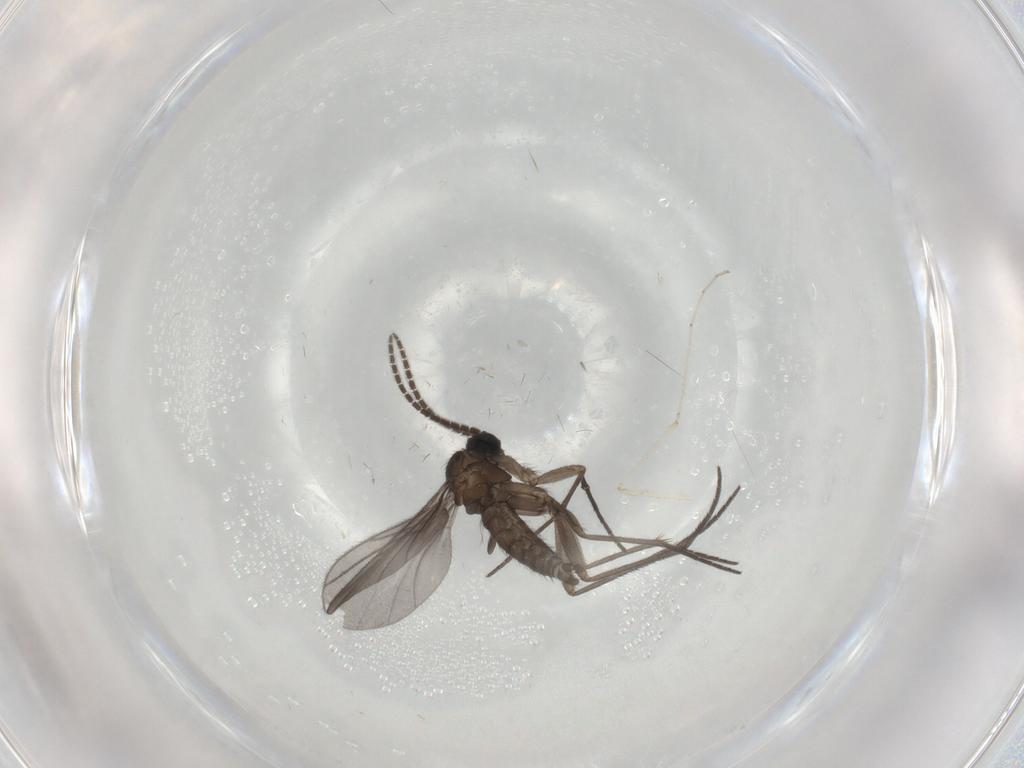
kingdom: Animalia
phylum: Arthropoda
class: Insecta
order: Diptera
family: Sciaridae
